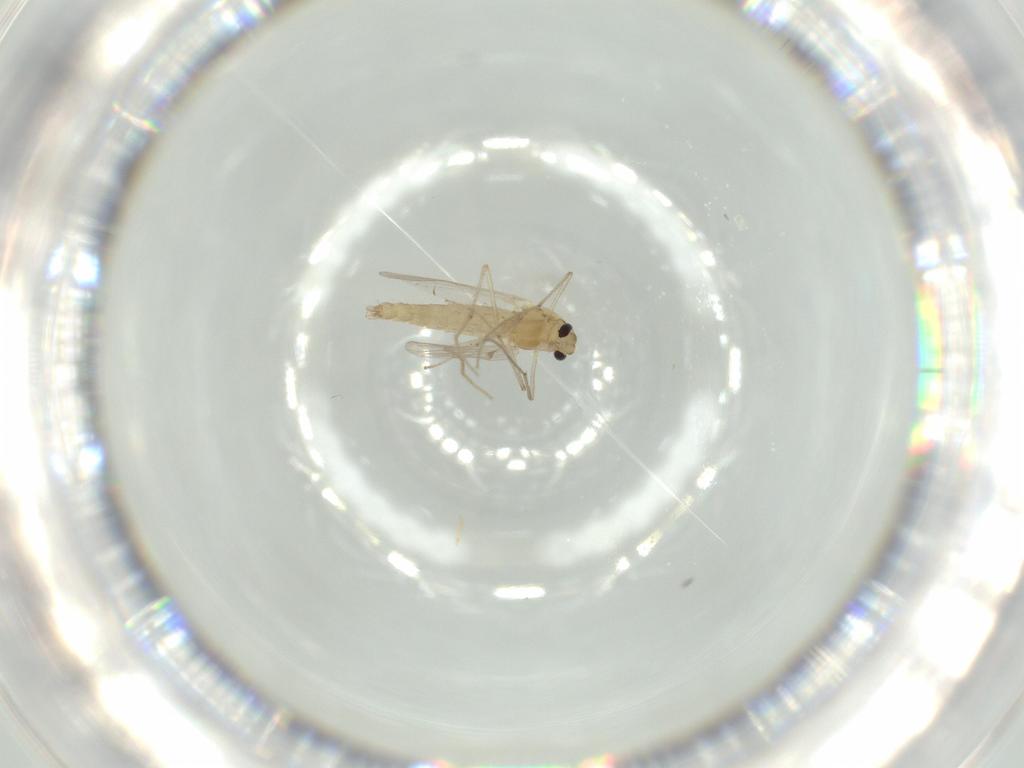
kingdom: Animalia
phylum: Arthropoda
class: Insecta
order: Diptera
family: Chironomidae
